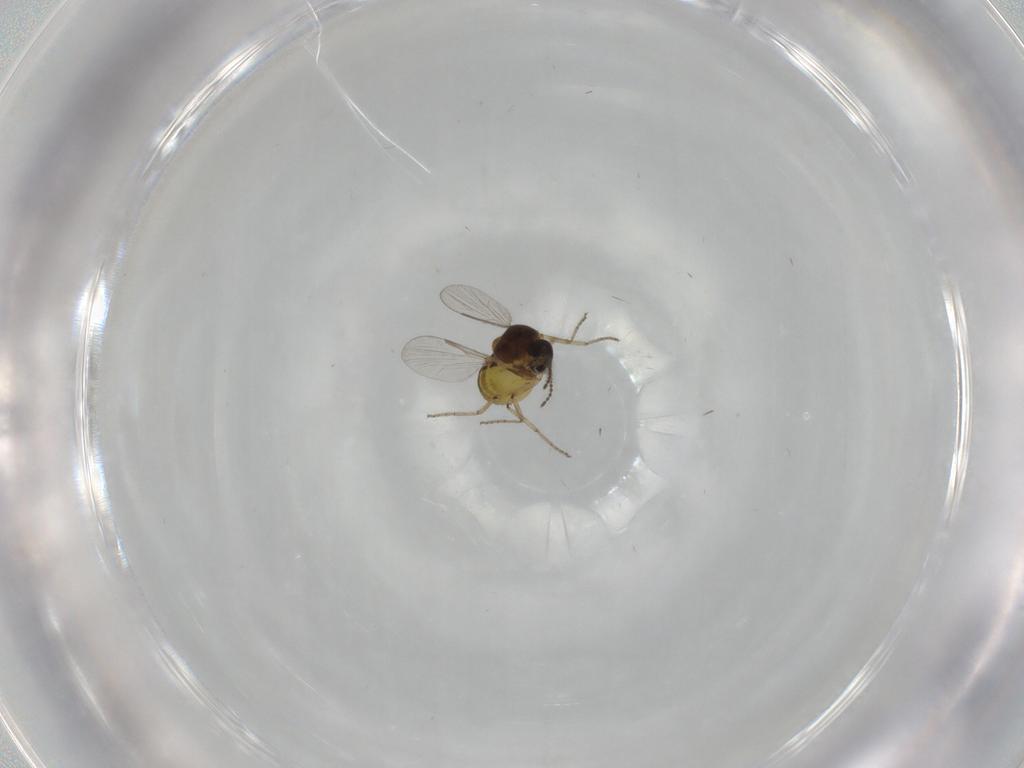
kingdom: Animalia
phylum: Arthropoda
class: Insecta
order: Diptera
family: Ceratopogonidae
